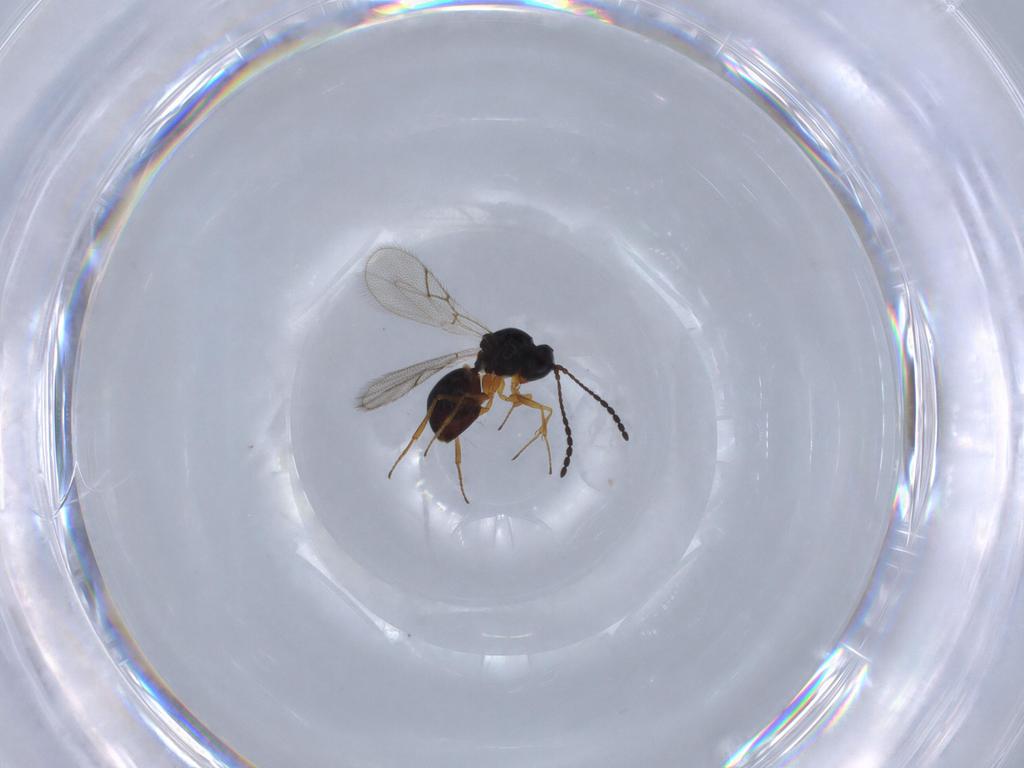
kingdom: Animalia
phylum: Arthropoda
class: Insecta
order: Hymenoptera
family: Figitidae
